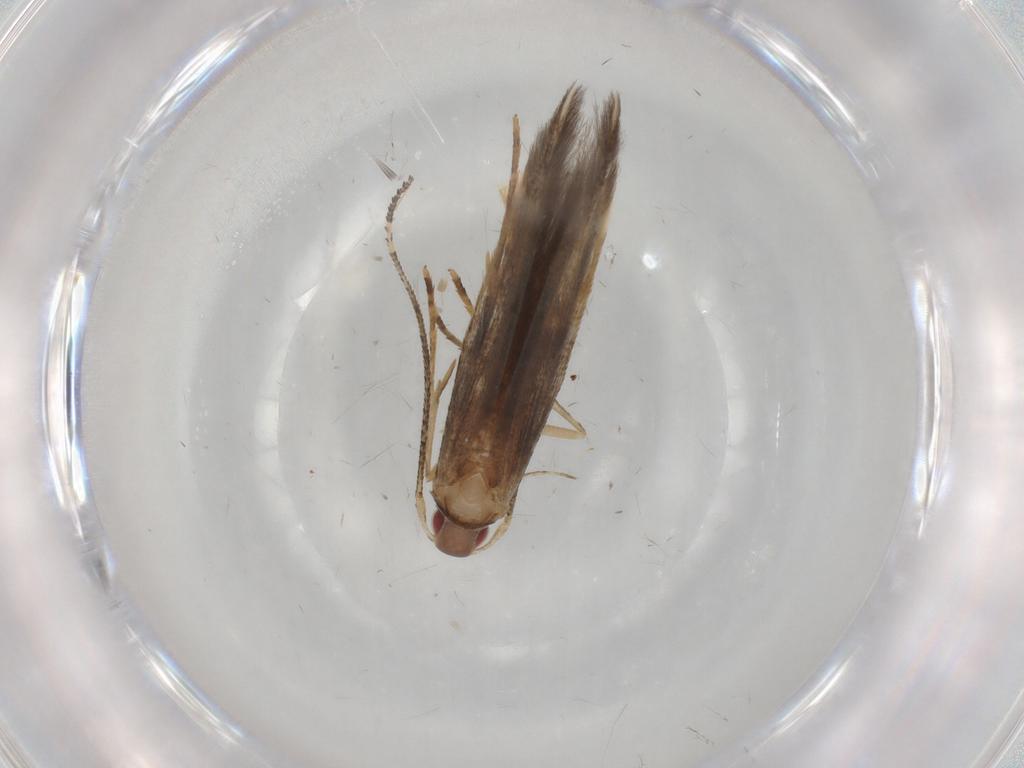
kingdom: Animalia
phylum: Arthropoda
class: Insecta
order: Lepidoptera
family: Cosmopterigidae
